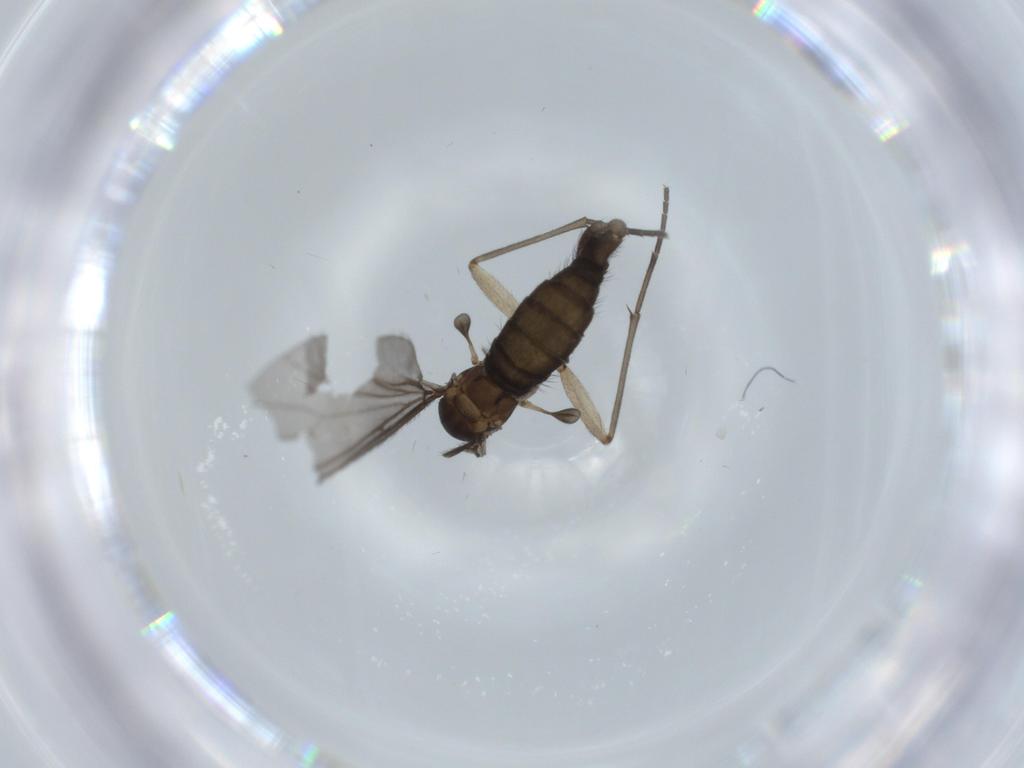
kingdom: Animalia
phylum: Arthropoda
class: Insecta
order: Diptera
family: Sciaridae
